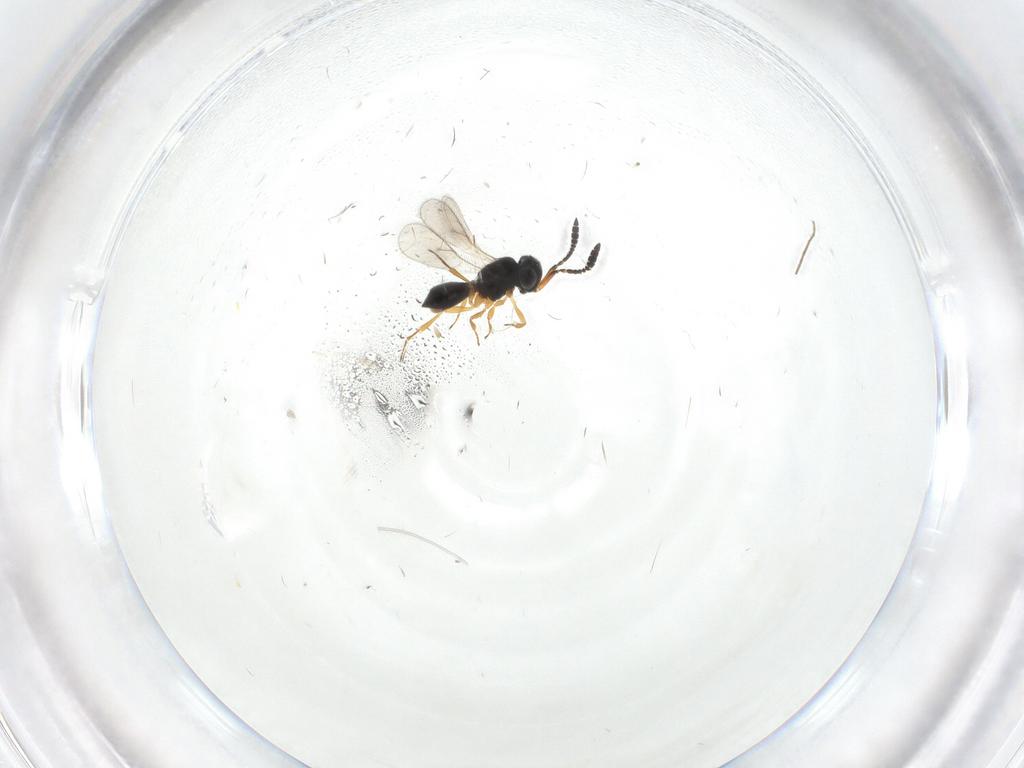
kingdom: Animalia
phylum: Arthropoda
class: Insecta
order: Hymenoptera
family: Scelionidae
